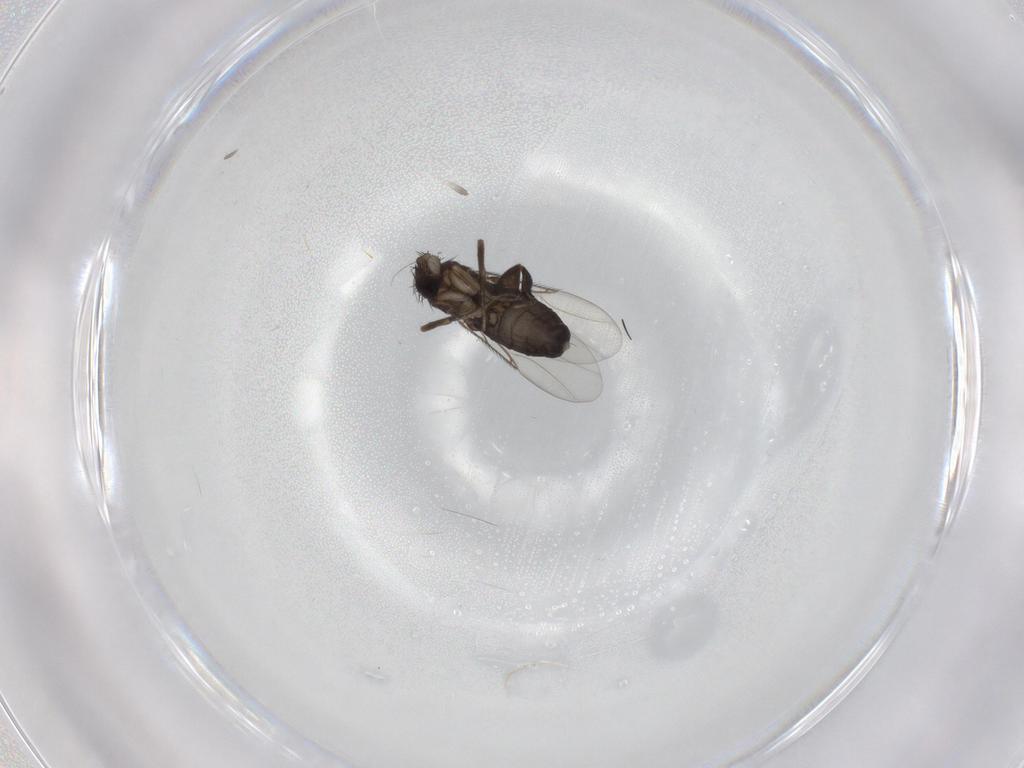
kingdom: Animalia
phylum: Arthropoda
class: Insecta
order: Diptera
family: Phoridae
